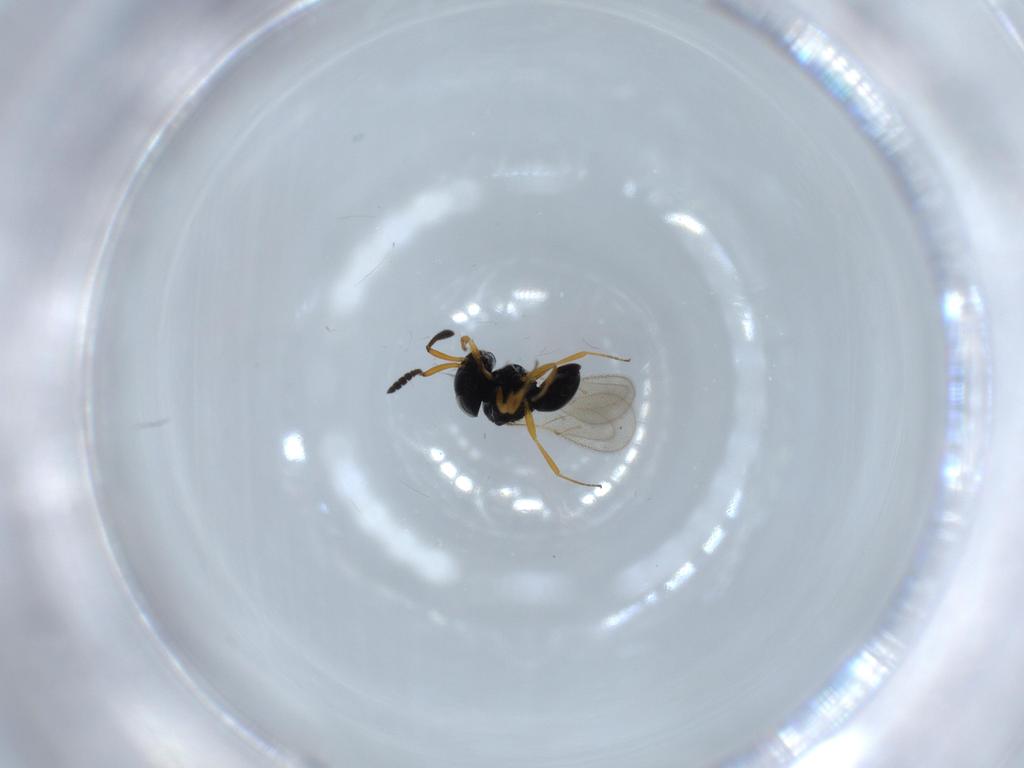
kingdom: Animalia
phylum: Arthropoda
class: Insecta
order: Hymenoptera
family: Scelionidae
